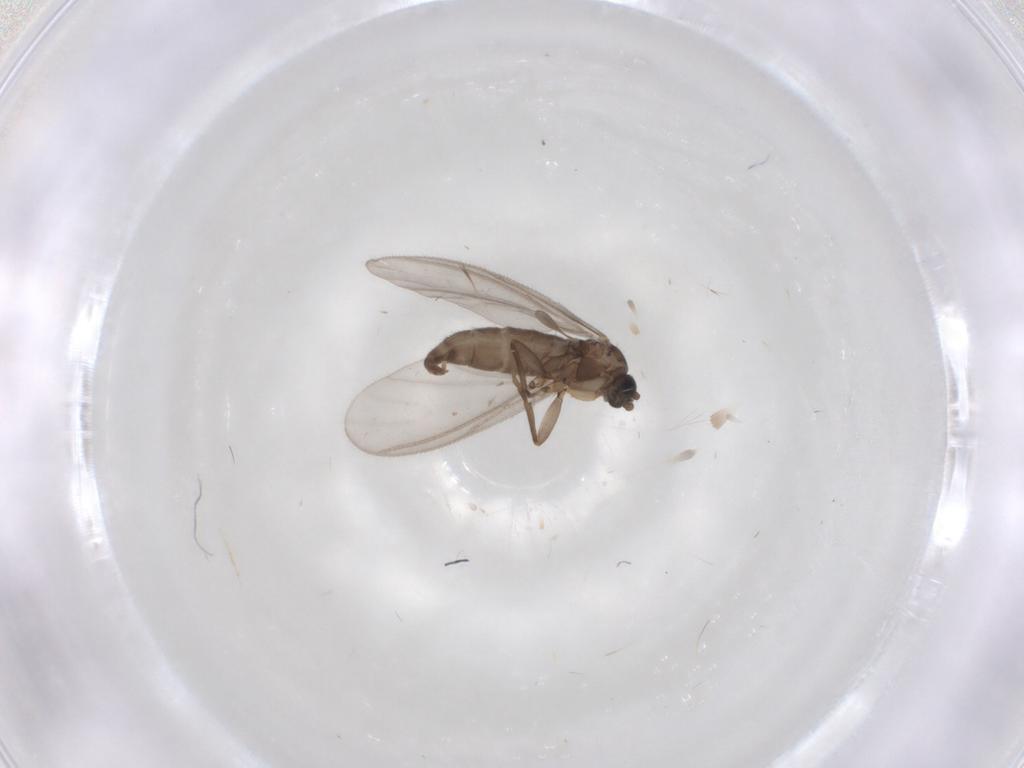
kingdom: Animalia
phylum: Arthropoda
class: Insecta
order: Diptera
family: Sciaridae
